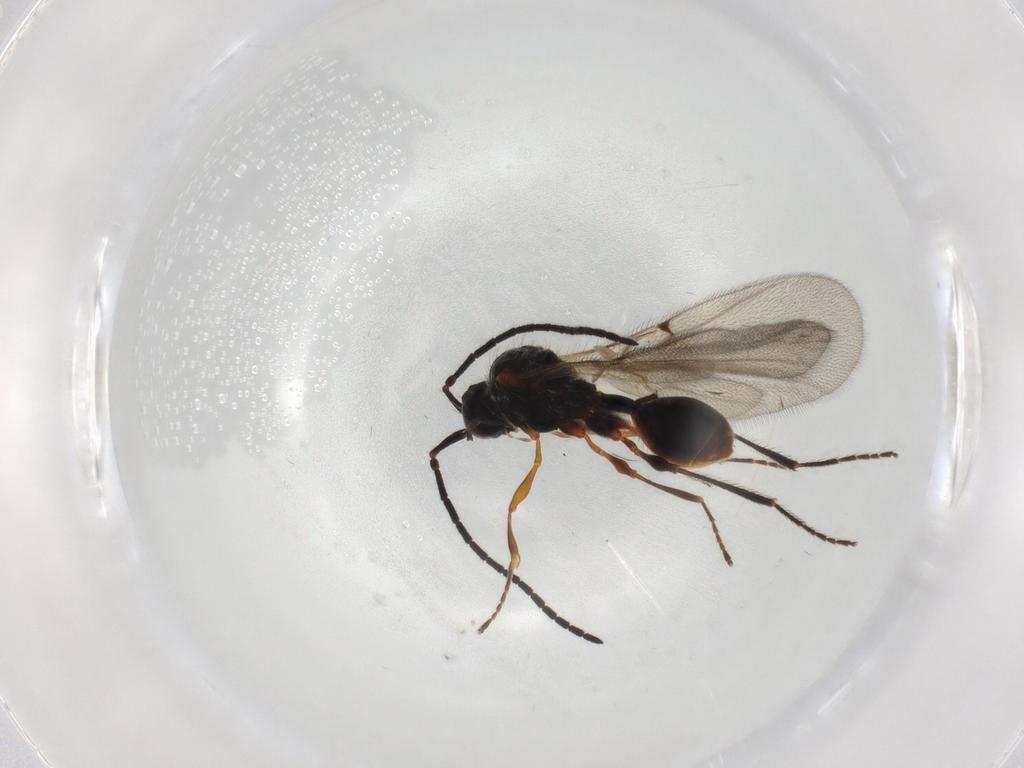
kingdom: Animalia
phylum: Arthropoda
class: Insecta
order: Hymenoptera
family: Diapriidae
